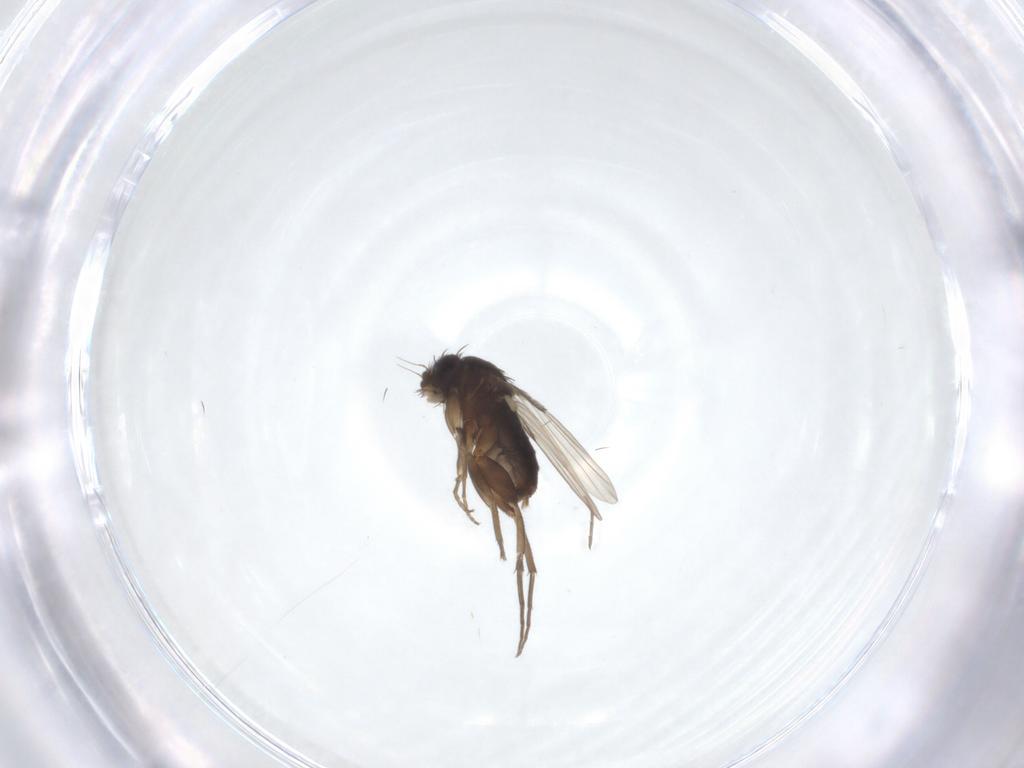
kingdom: Animalia
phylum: Arthropoda
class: Insecta
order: Diptera
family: Phoridae
